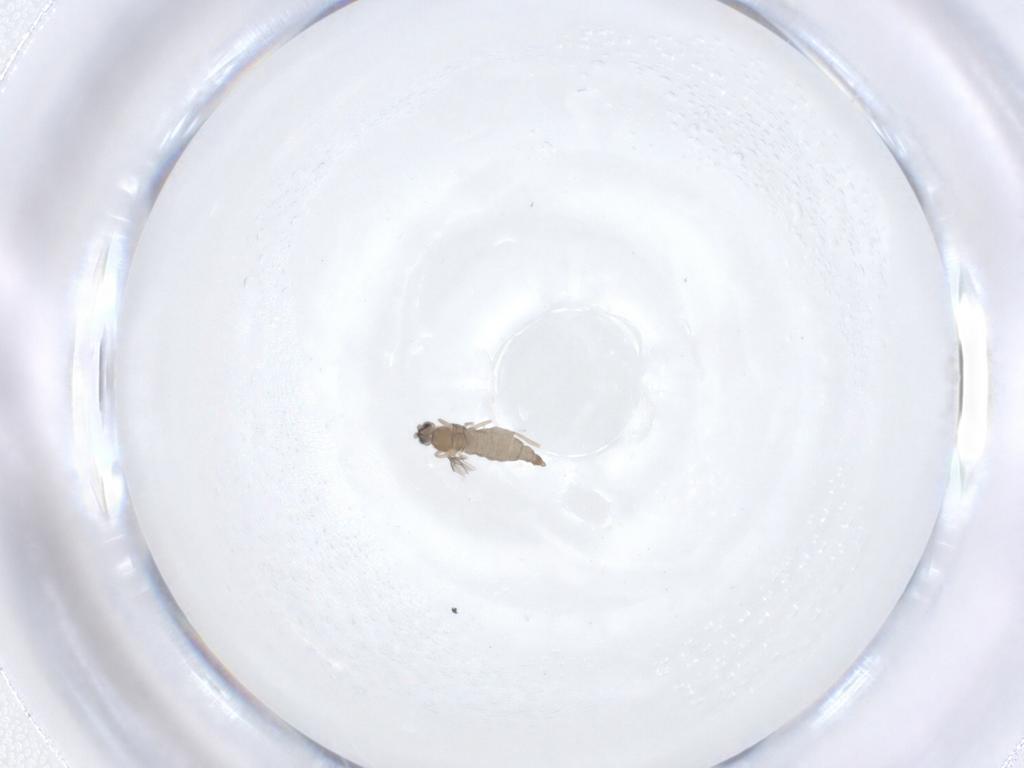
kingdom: Animalia
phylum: Arthropoda
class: Insecta
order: Diptera
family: Cecidomyiidae
